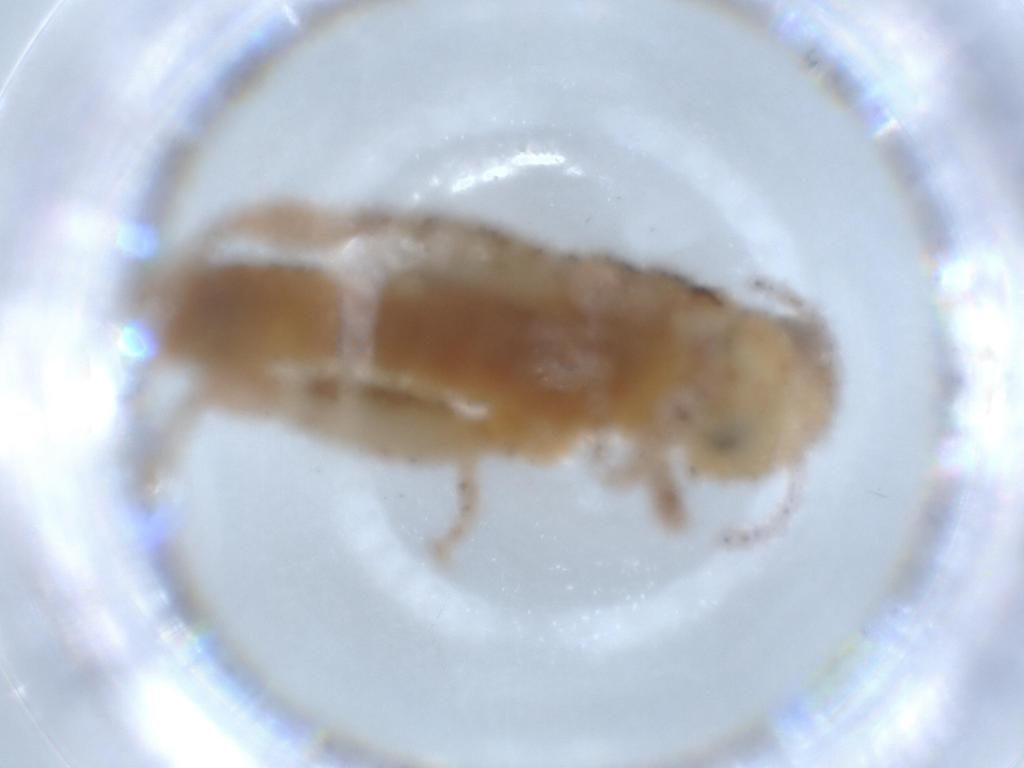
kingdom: Animalia
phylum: Arthropoda
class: Insecta
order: Orthoptera
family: Acrididae
